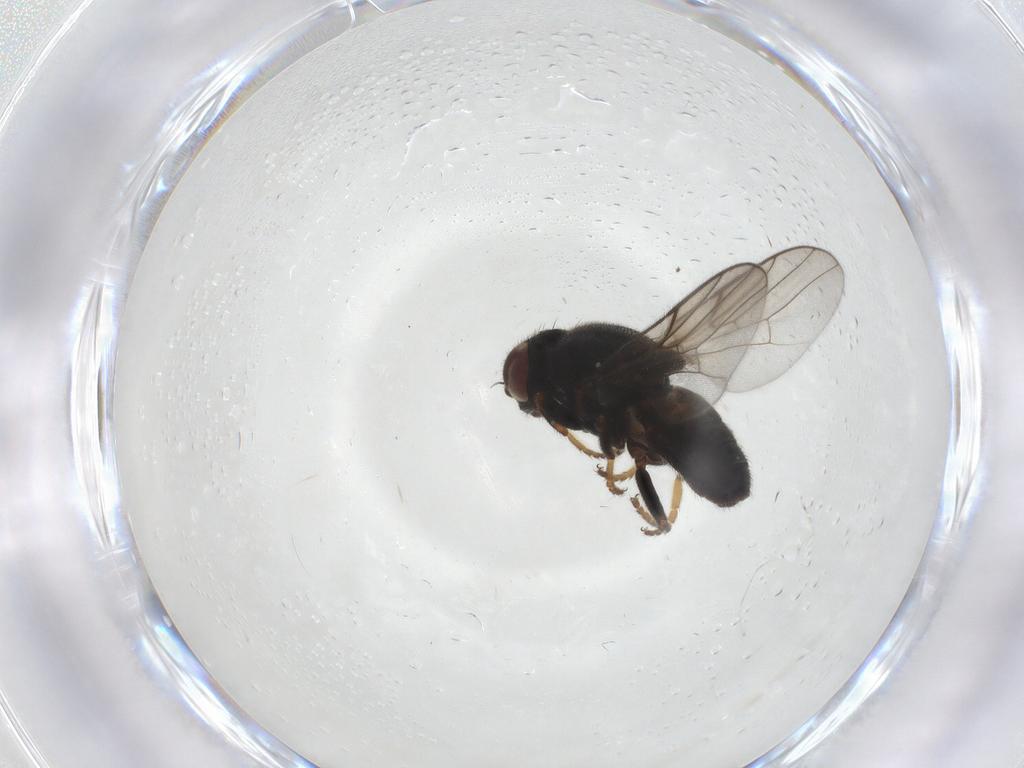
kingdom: Animalia
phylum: Arthropoda
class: Insecta
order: Diptera
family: Chloropidae
